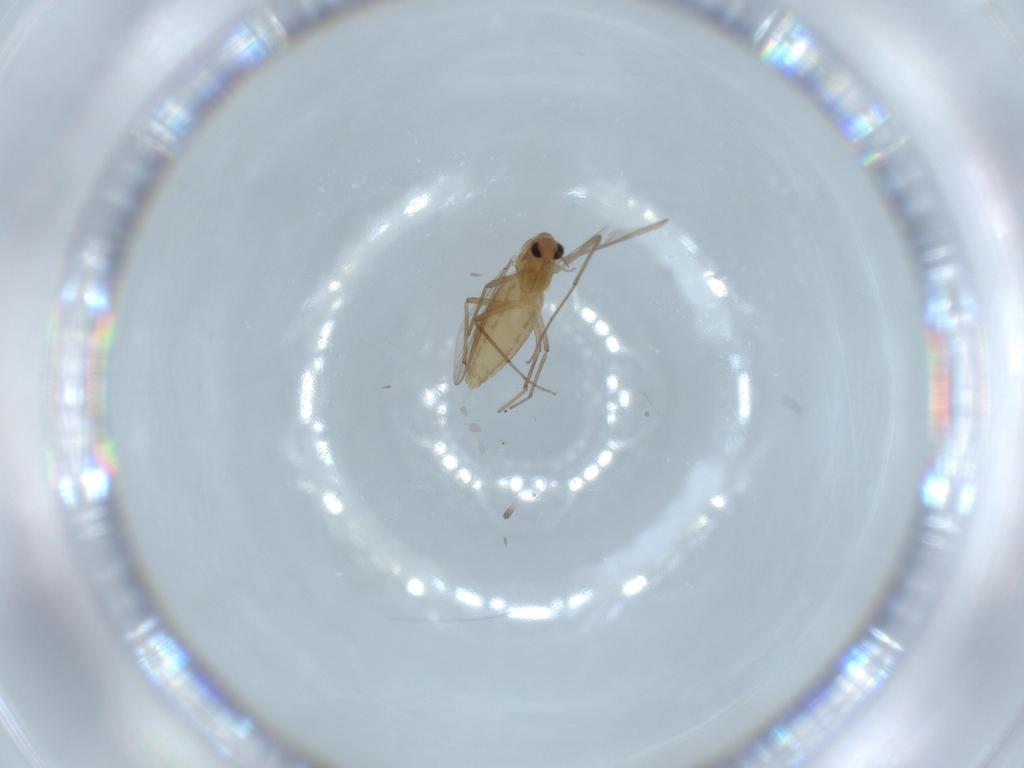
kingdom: Animalia
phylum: Arthropoda
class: Insecta
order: Diptera
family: Chironomidae
